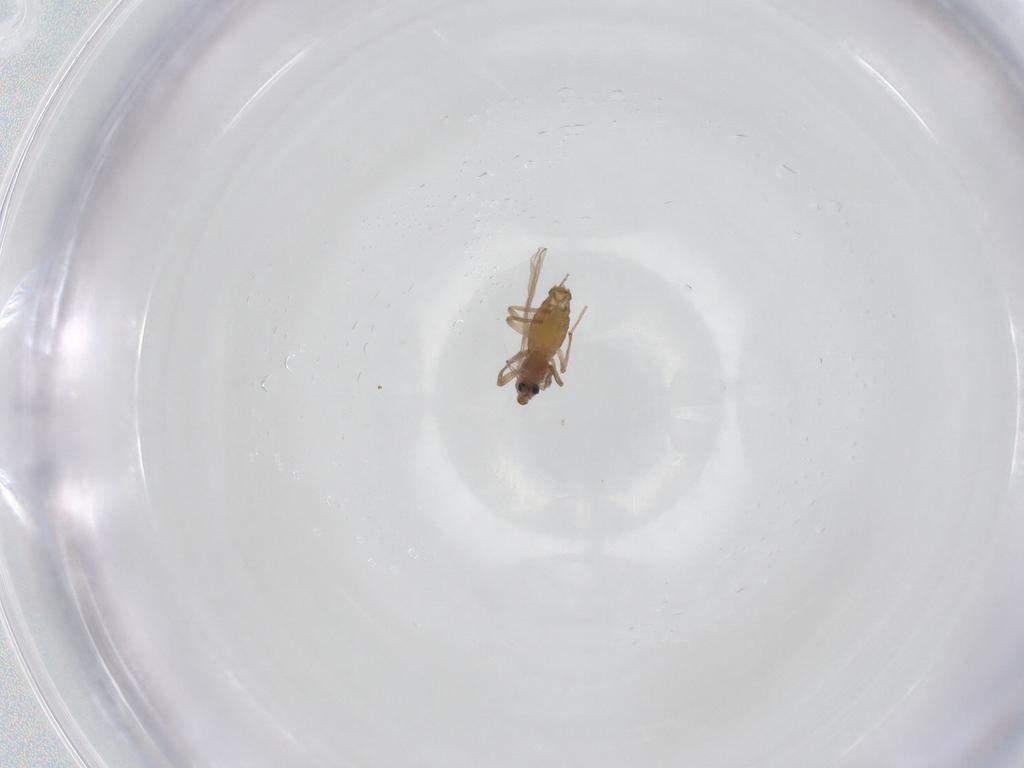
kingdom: Animalia
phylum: Arthropoda
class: Insecta
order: Diptera
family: Chironomidae
